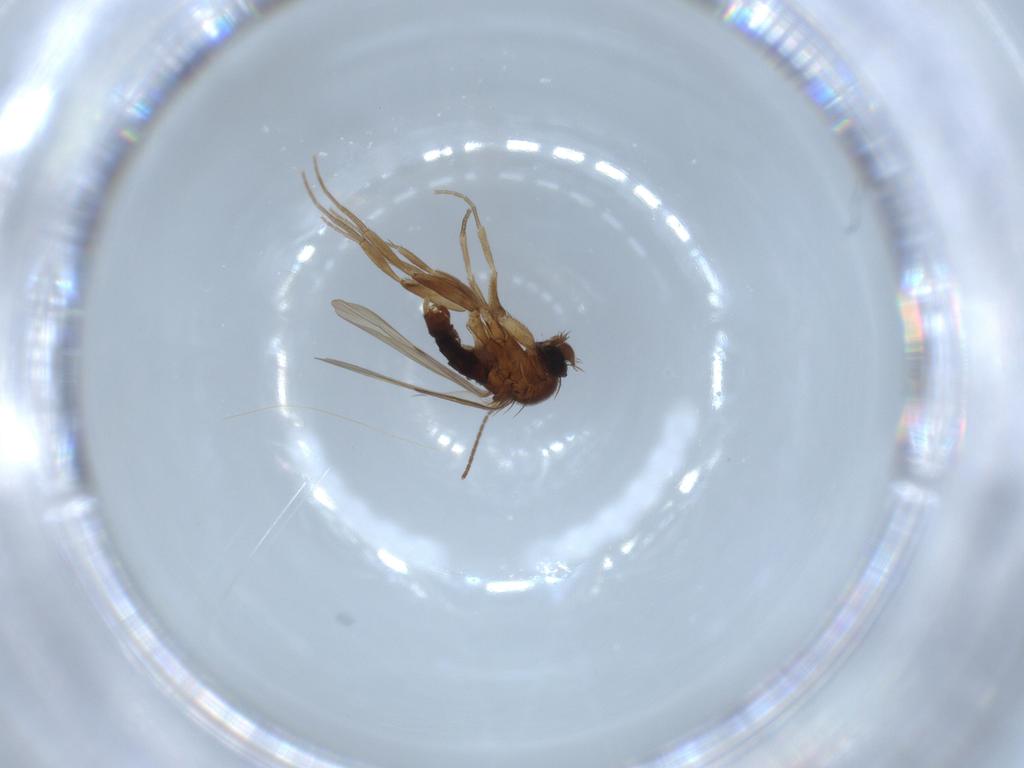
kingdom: Animalia
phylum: Arthropoda
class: Insecta
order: Diptera
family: Phoridae
